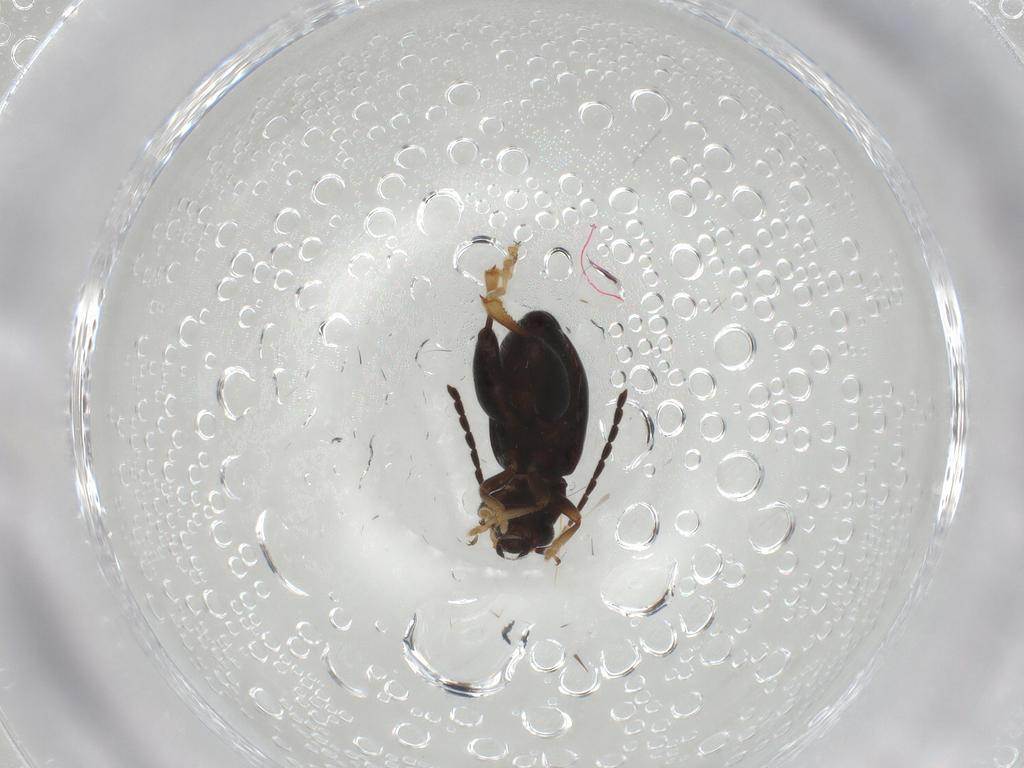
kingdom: Animalia
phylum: Arthropoda
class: Insecta
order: Coleoptera
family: Chrysomelidae
